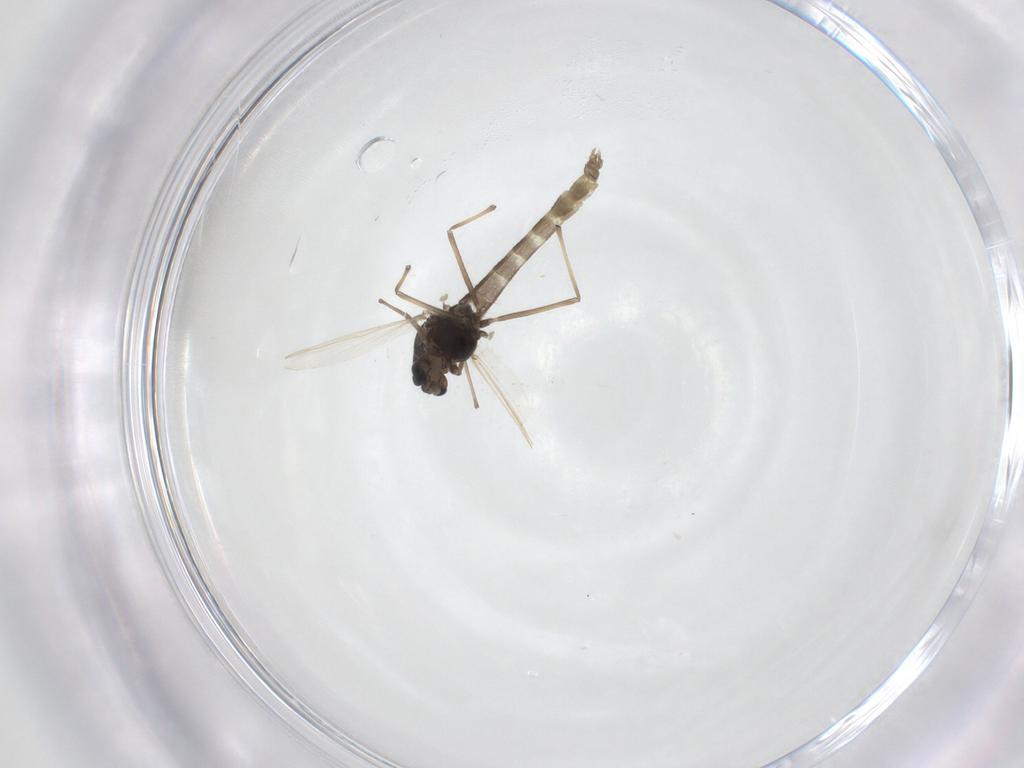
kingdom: Animalia
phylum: Arthropoda
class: Insecta
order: Diptera
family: Chironomidae
